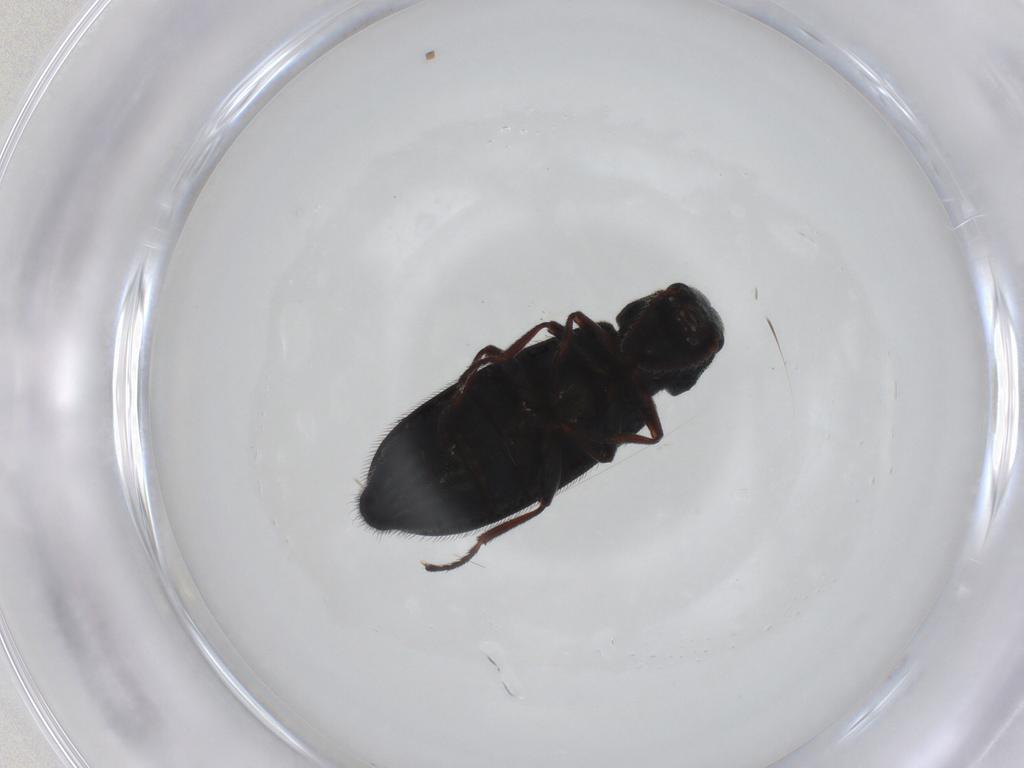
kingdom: Animalia
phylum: Arthropoda
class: Insecta
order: Coleoptera
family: Melyridae
